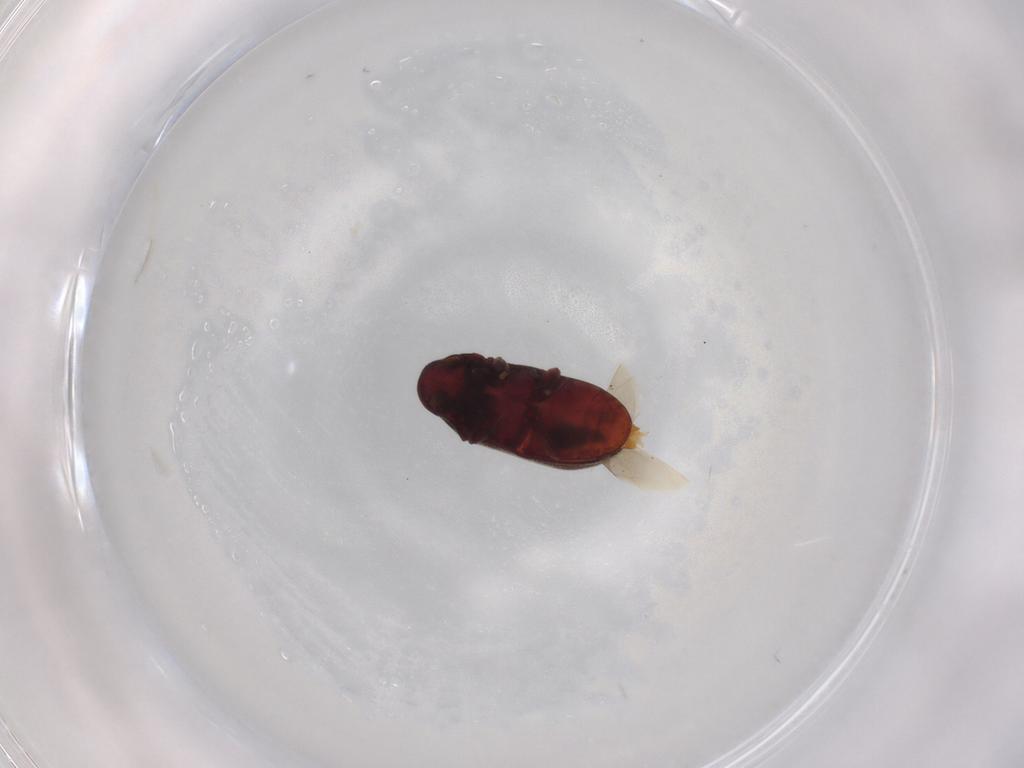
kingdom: Animalia
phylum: Arthropoda
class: Insecta
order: Coleoptera
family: Ptinidae
